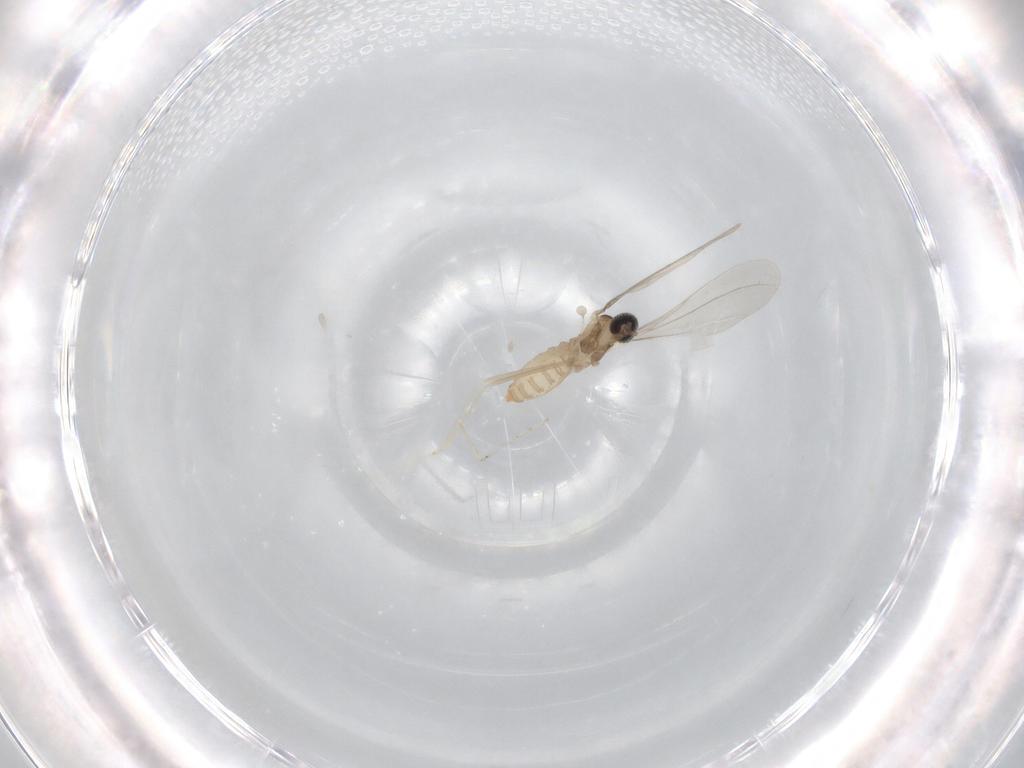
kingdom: Animalia
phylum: Arthropoda
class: Insecta
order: Diptera
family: Cecidomyiidae
